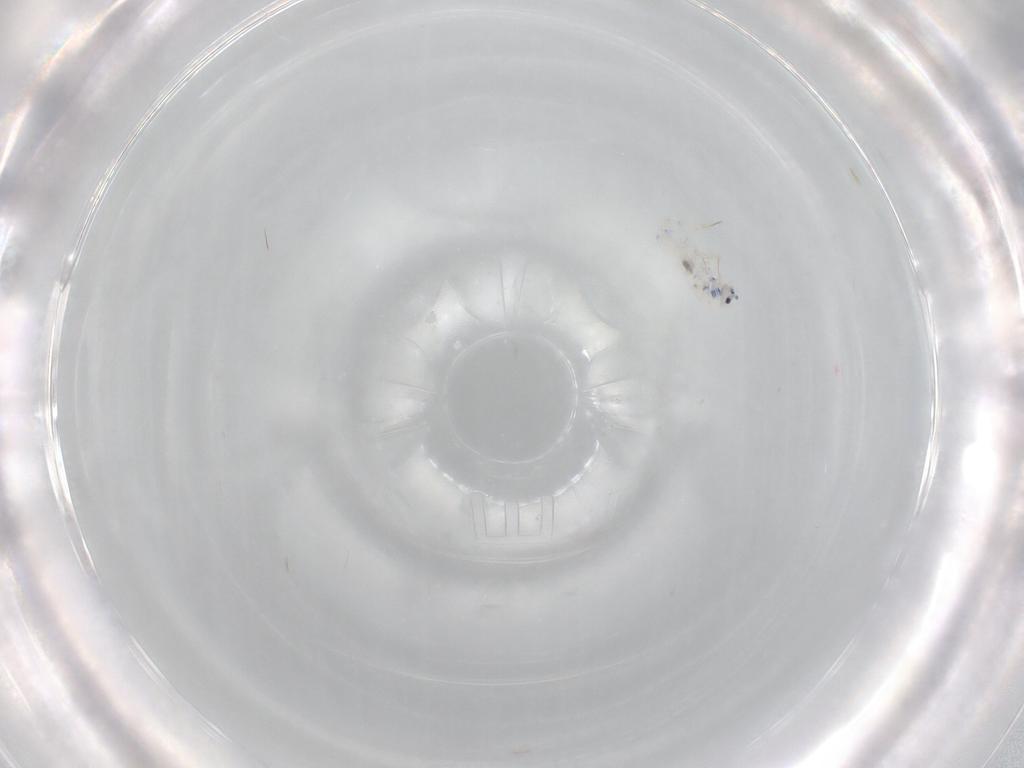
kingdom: Animalia
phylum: Arthropoda
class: Collembola
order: Entomobryomorpha
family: Entomobryidae
